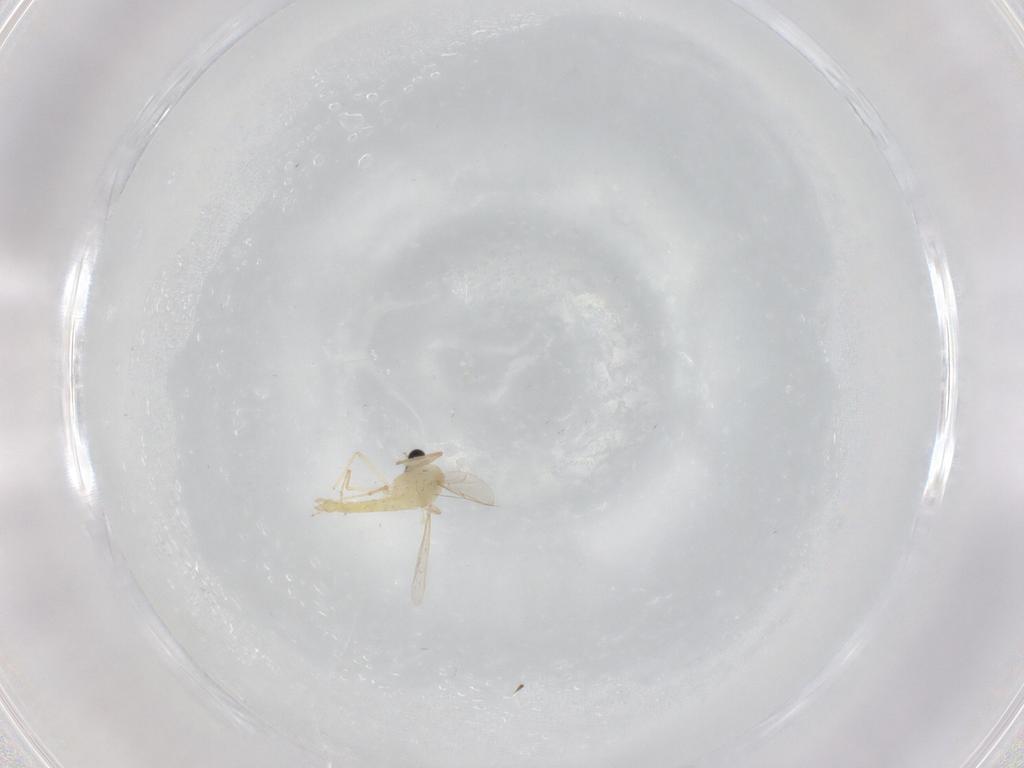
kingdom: Animalia
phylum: Arthropoda
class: Insecta
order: Diptera
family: Chironomidae
